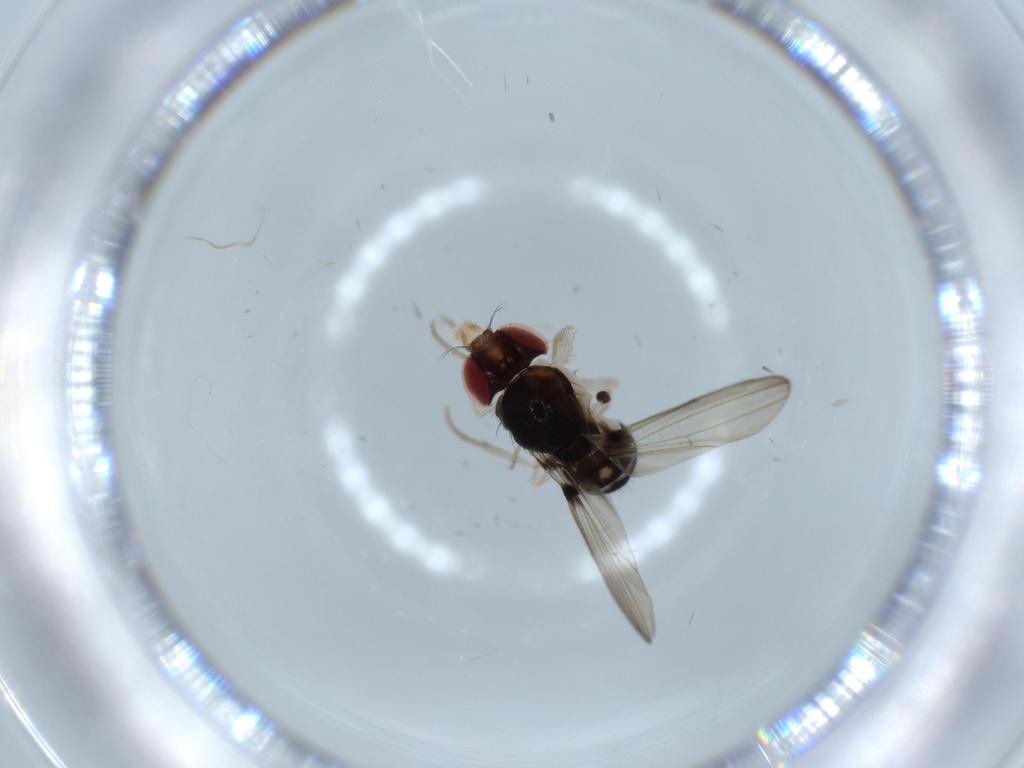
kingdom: Animalia
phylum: Arthropoda
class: Insecta
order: Diptera
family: Drosophilidae
